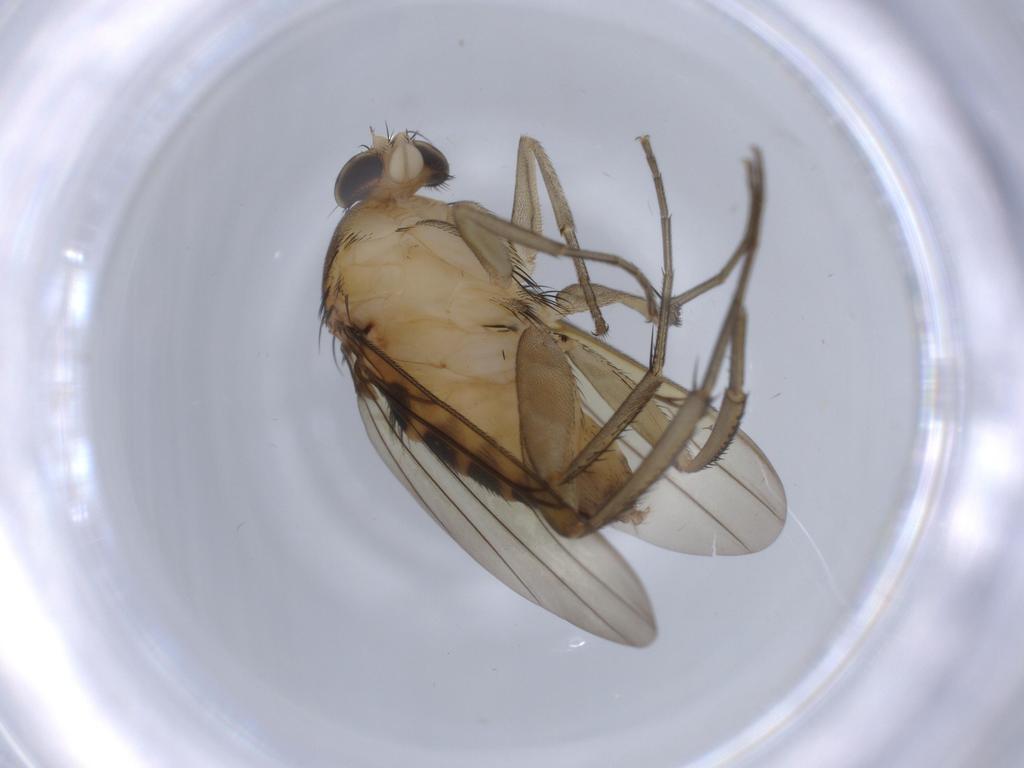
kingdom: Animalia
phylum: Arthropoda
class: Insecta
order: Diptera
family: Phoridae
